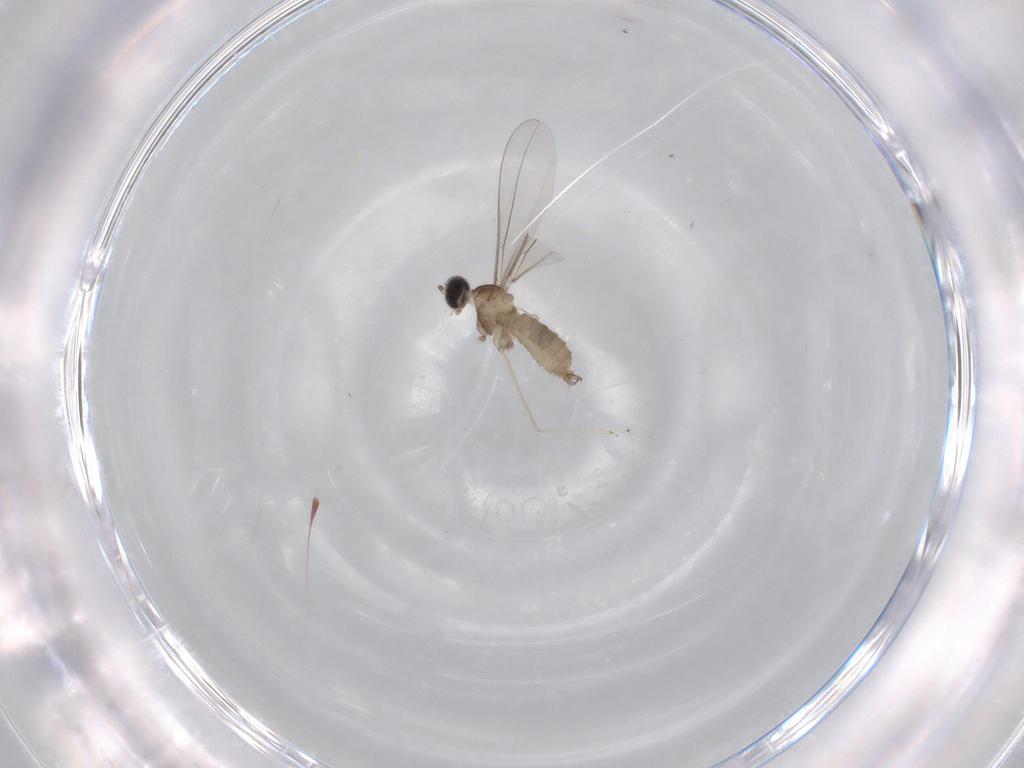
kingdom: Animalia
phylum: Arthropoda
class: Insecta
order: Diptera
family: Cecidomyiidae
